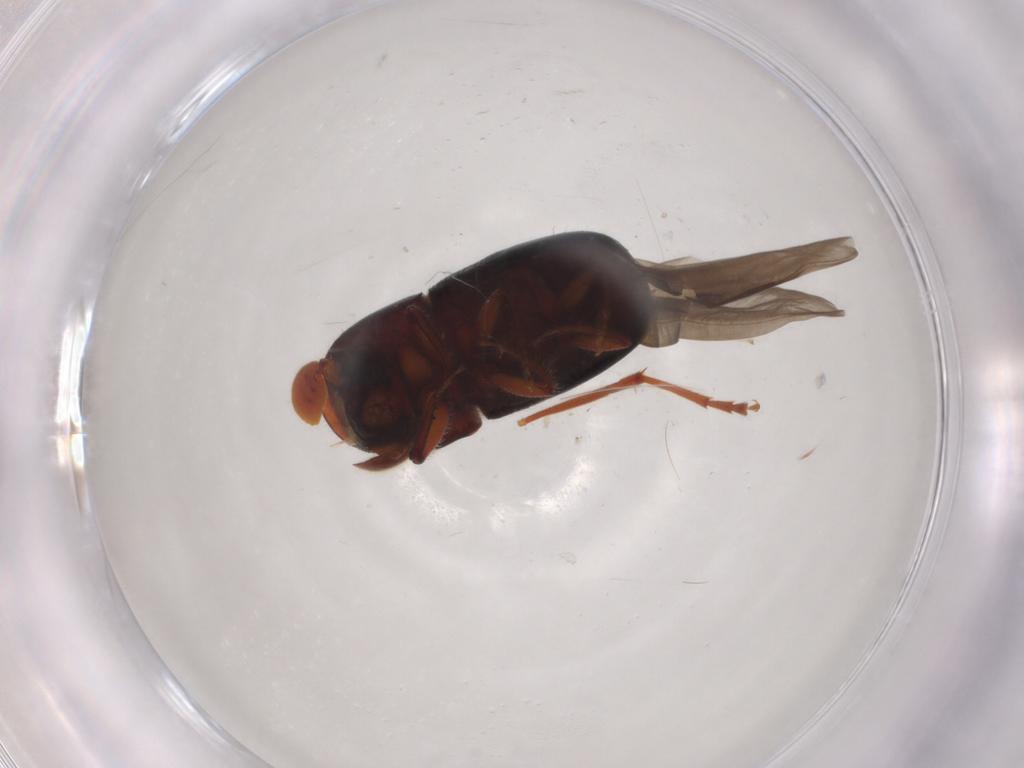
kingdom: Animalia
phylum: Arthropoda
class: Insecta
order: Coleoptera
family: Curculionidae
